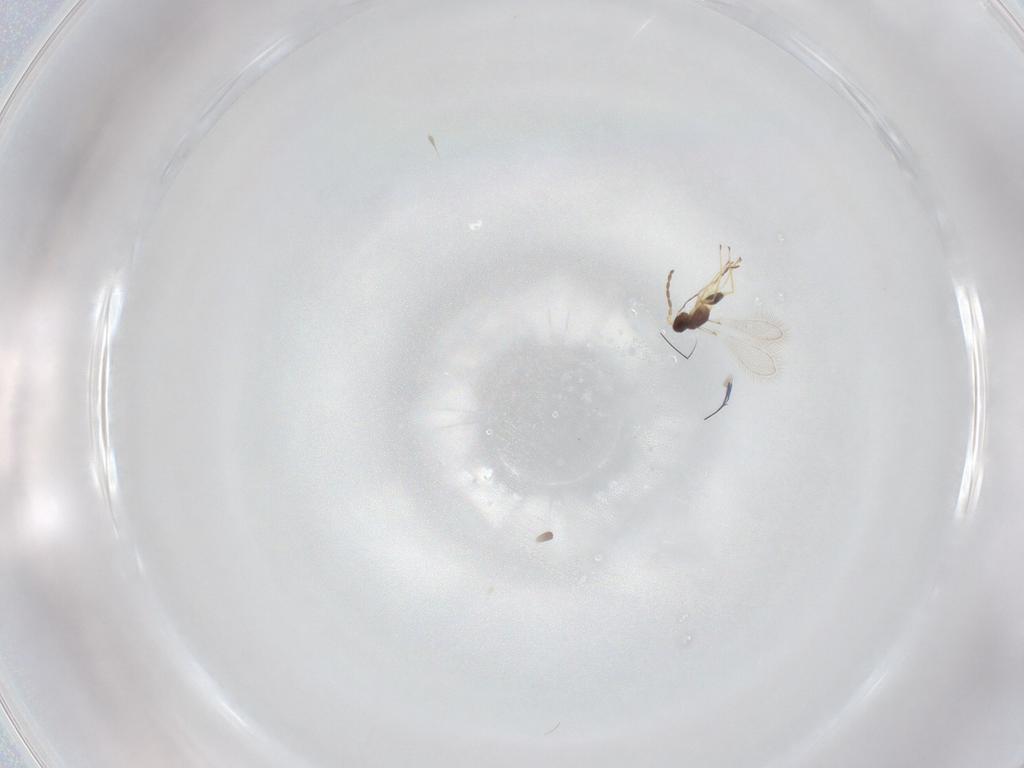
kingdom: Animalia
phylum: Arthropoda
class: Insecta
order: Hymenoptera
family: Mymaridae
